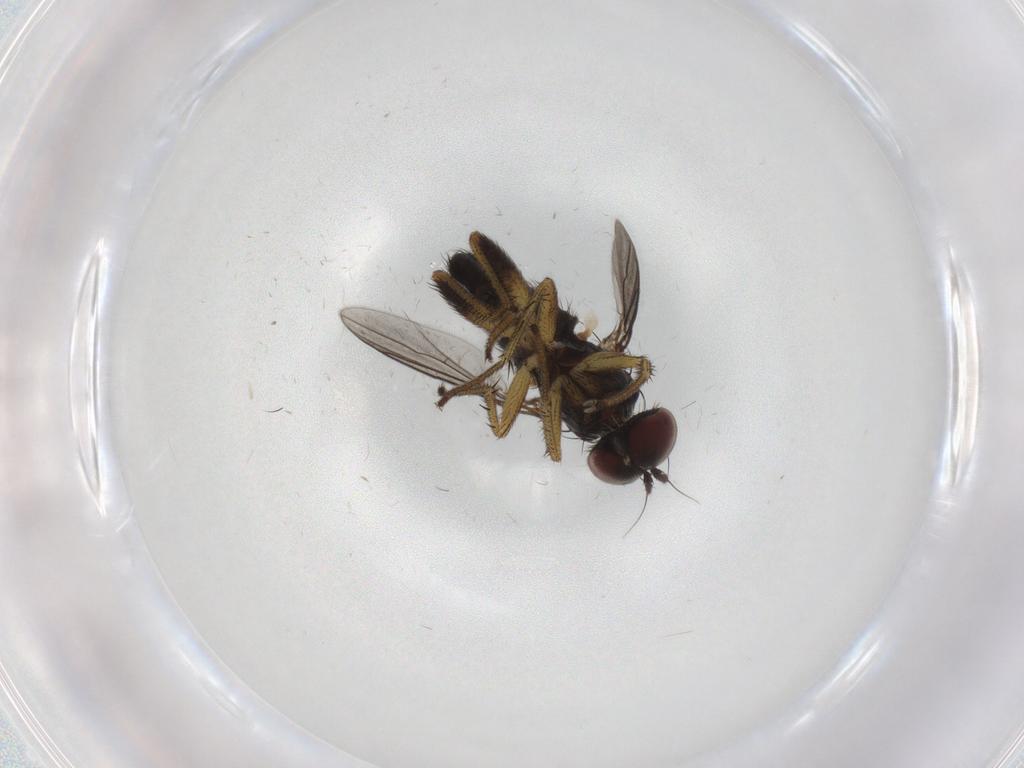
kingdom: Animalia
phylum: Arthropoda
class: Insecta
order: Diptera
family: Dolichopodidae
